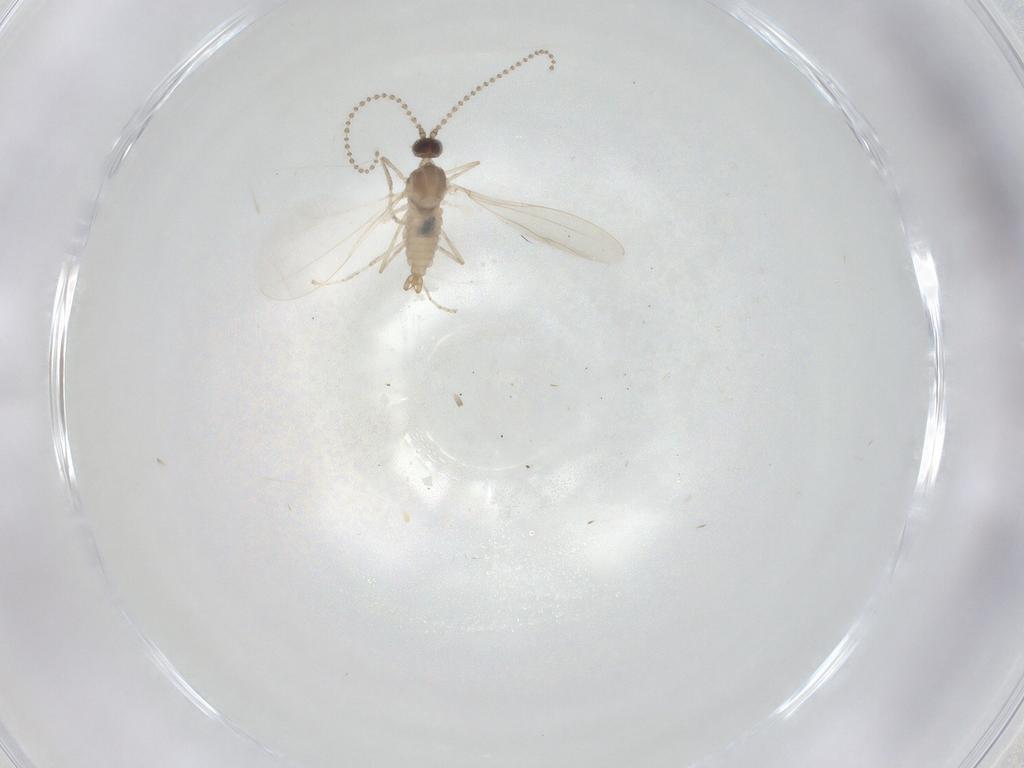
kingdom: Animalia
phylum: Arthropoda
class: Insecta
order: Diptera
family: Cecidomyiidae
